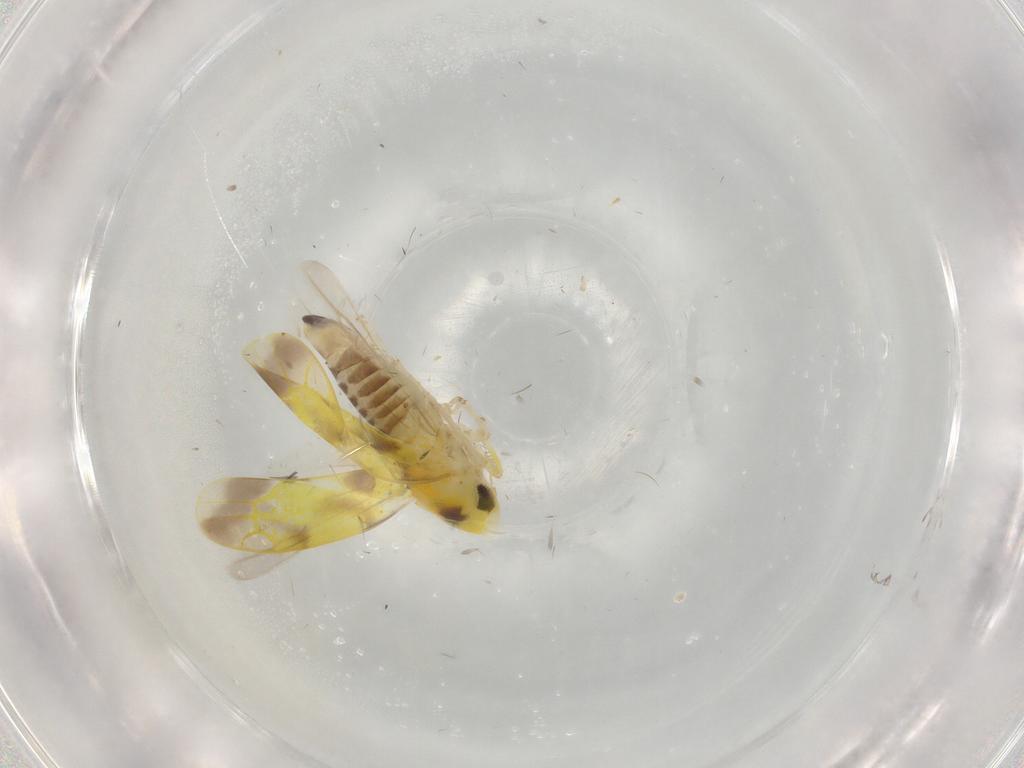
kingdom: Animalia
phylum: Arthropoda
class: Insecta
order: Hemiptera
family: Cicadellidae
